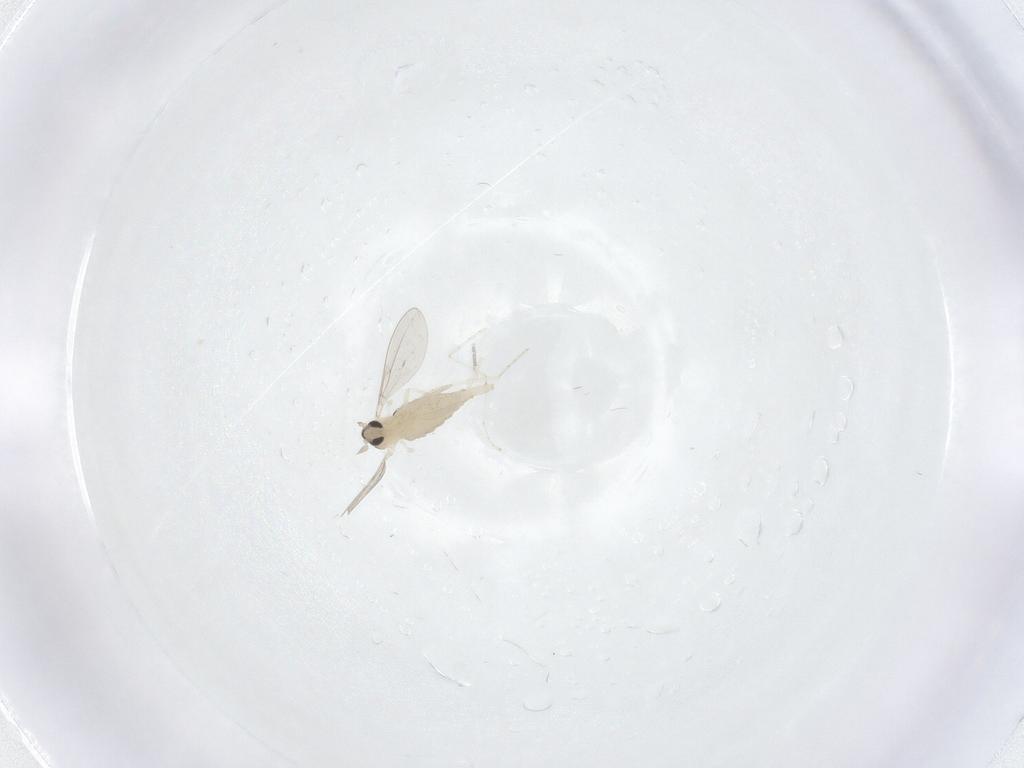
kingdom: Animalia
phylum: Arthropoda
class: Insecta
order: Diptera
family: Cecidomyiidae
